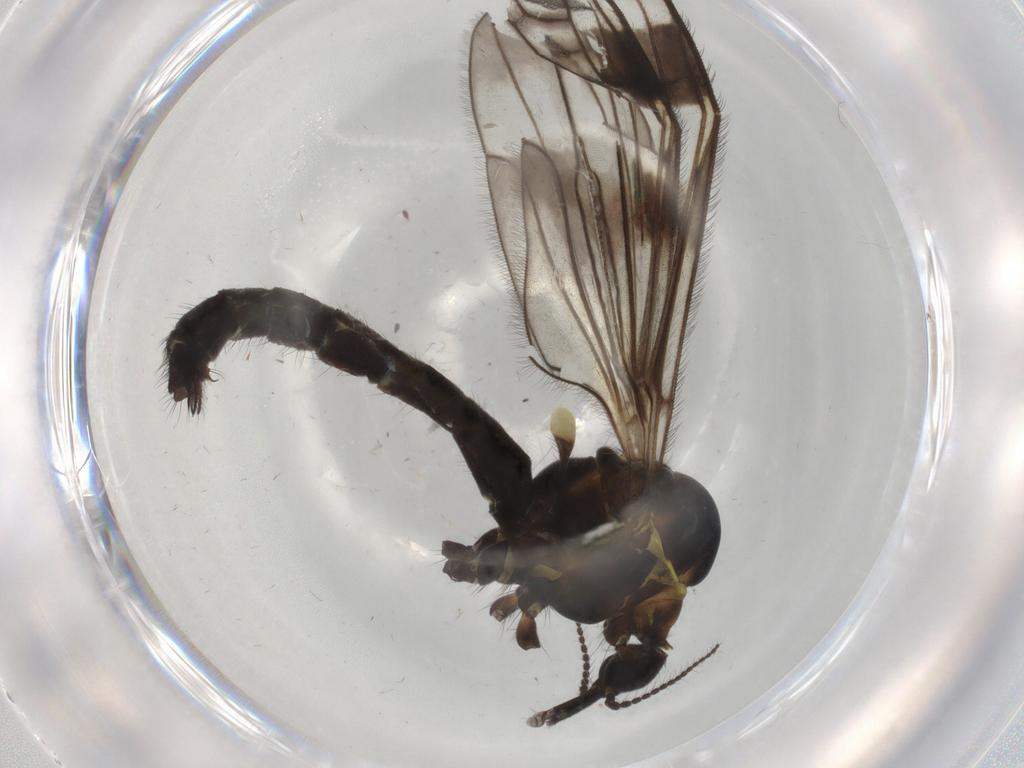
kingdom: Animalia
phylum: Arthropoda
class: Insecta
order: Diptera
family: Limoniidae
